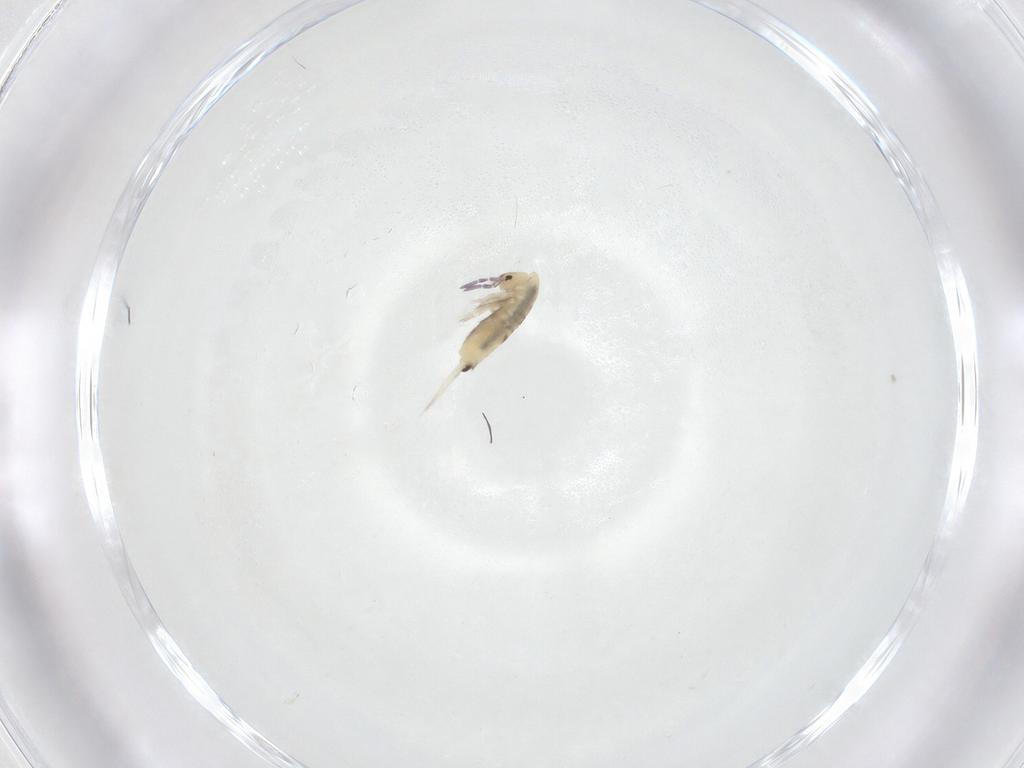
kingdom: Animalia
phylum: Arthropoda
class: Collembola
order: Entomobryomorpha
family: Entomobryidae
